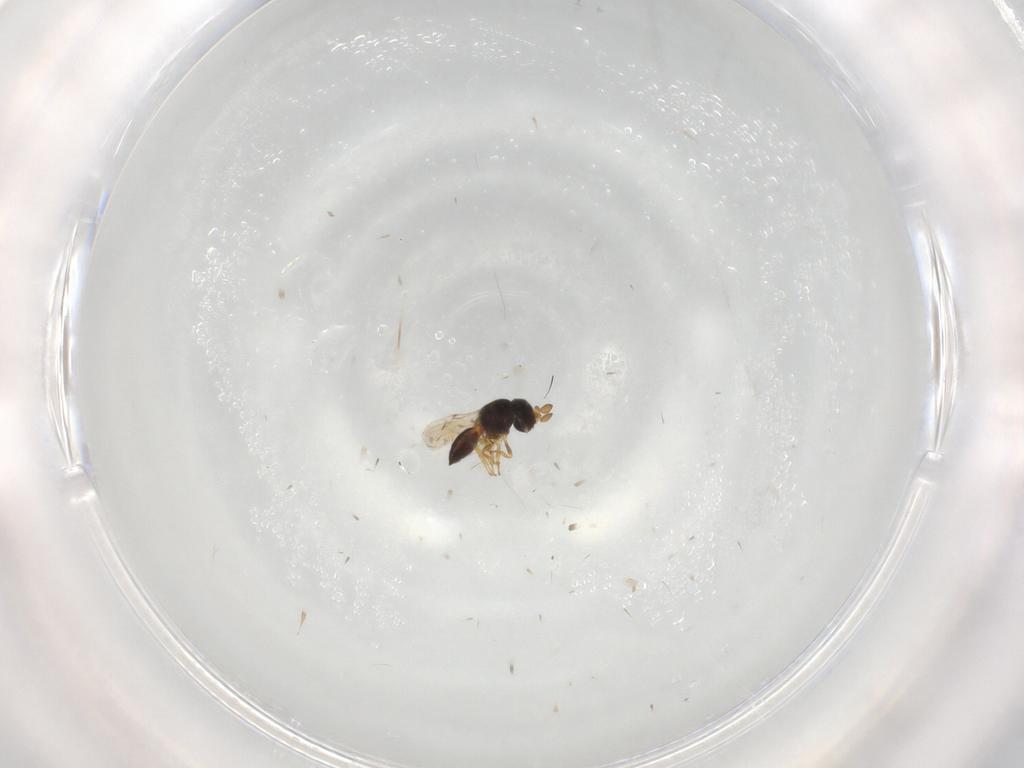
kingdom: Animalia
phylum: Arthropoda
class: Insecta
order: Hymenoptera
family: Scelionidae
